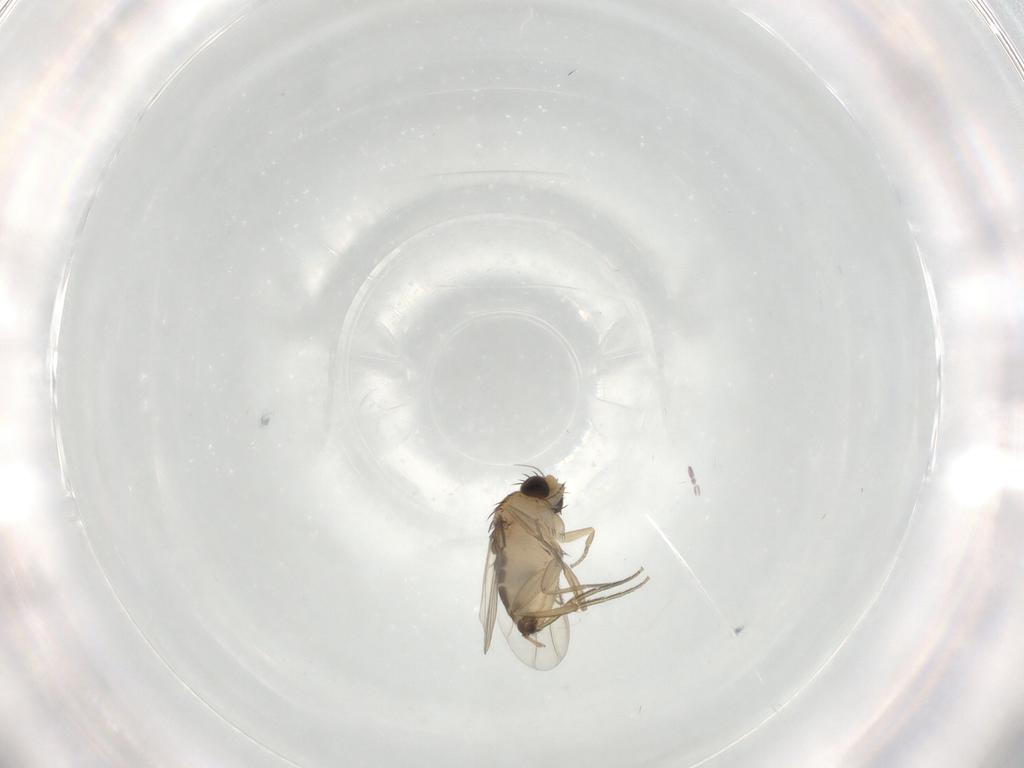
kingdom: Animalia
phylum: Arthropoda
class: Insecta
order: Diptera
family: Phoridae
